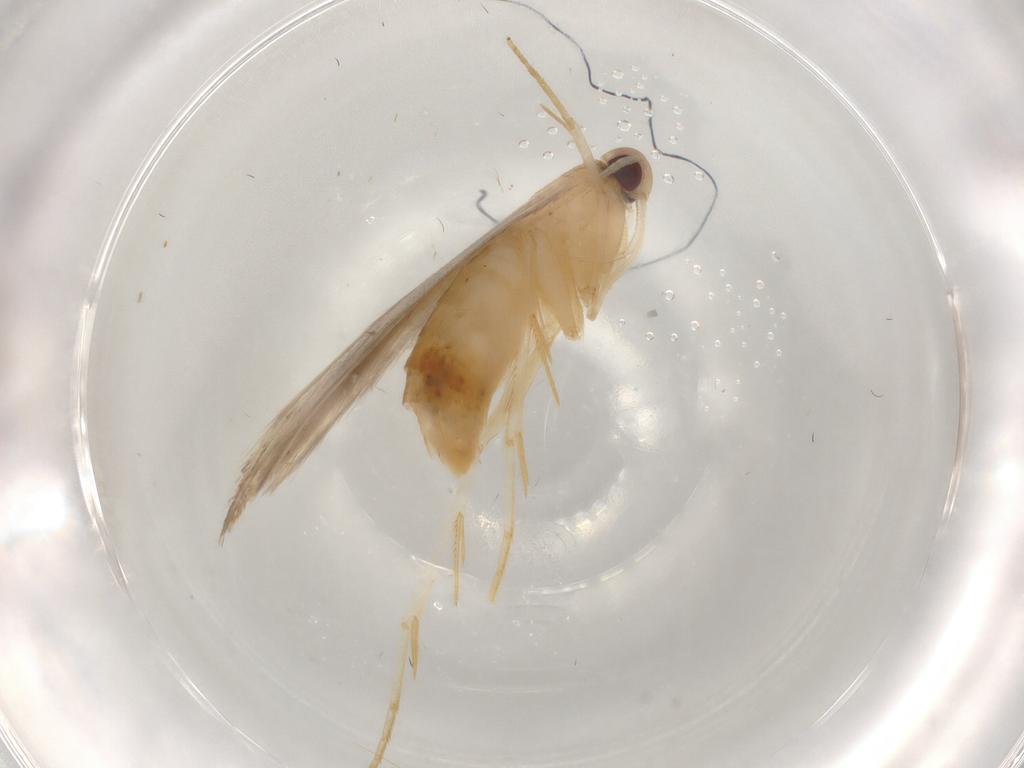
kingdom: Animalia
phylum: Arthropoda
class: Insecta
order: Lepidoptera
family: Cosmopterigidae
